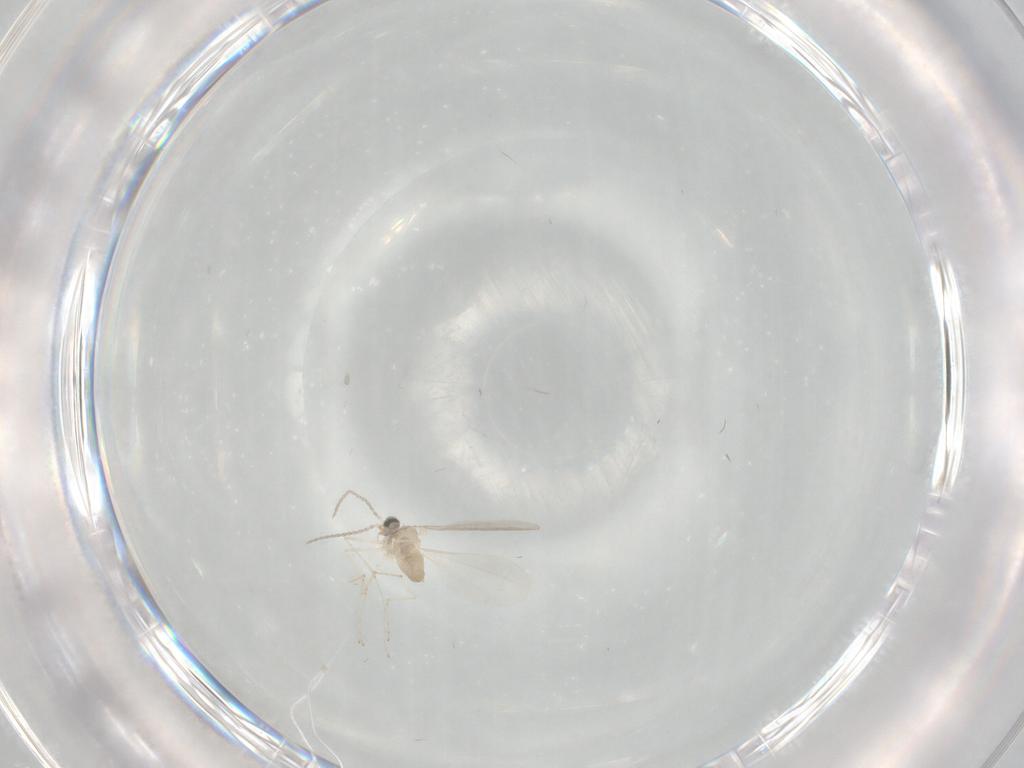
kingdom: Animalia
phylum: Arthropoda
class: Insecta
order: Diptera
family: Cecidomyiidae
